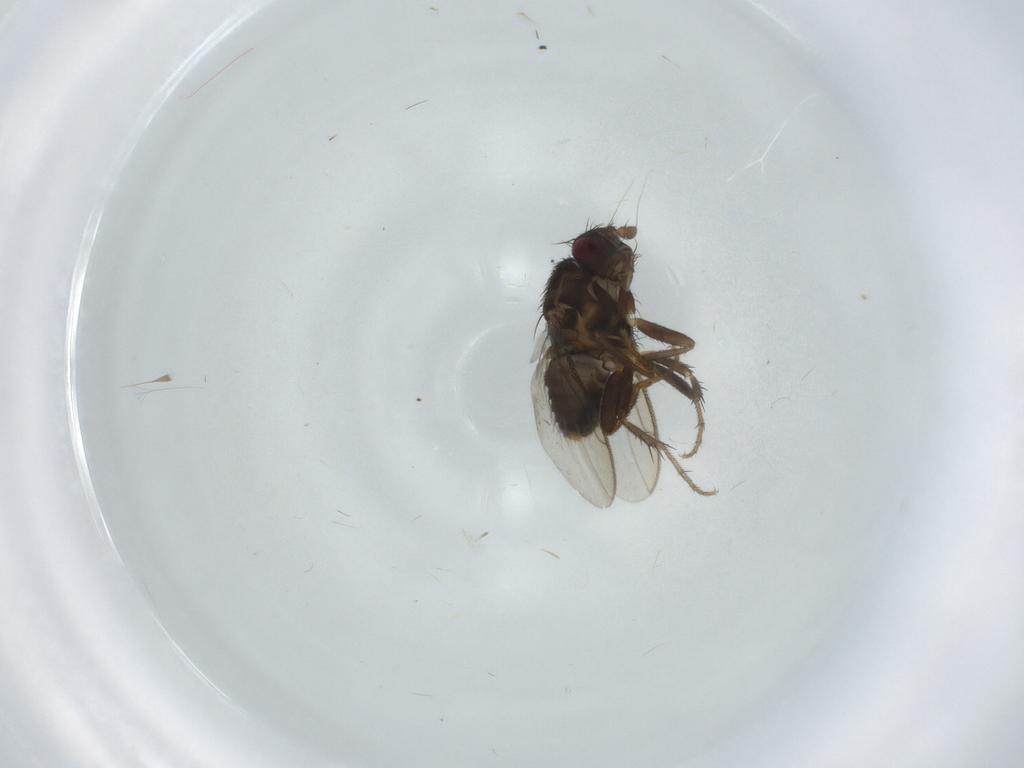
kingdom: Animalia
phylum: Arthropoda
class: Insecta
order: Diptera
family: Sphaeroceridae
